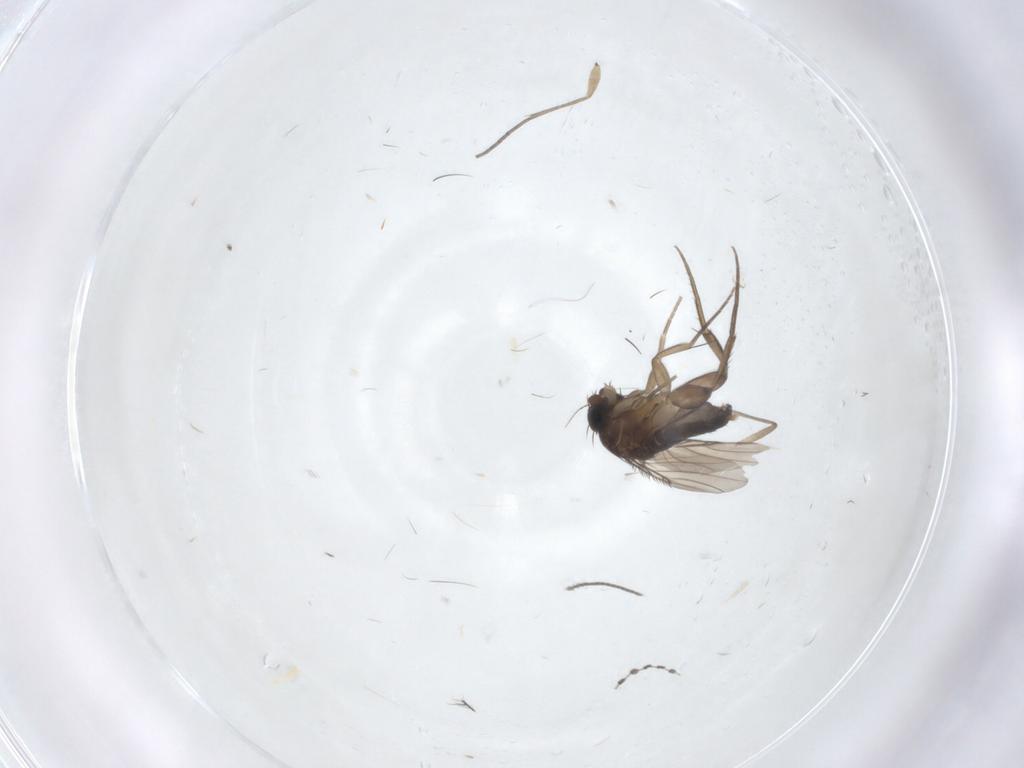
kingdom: Animalia
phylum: Arthropoda
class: Insecta
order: Diptera
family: Phoridae
